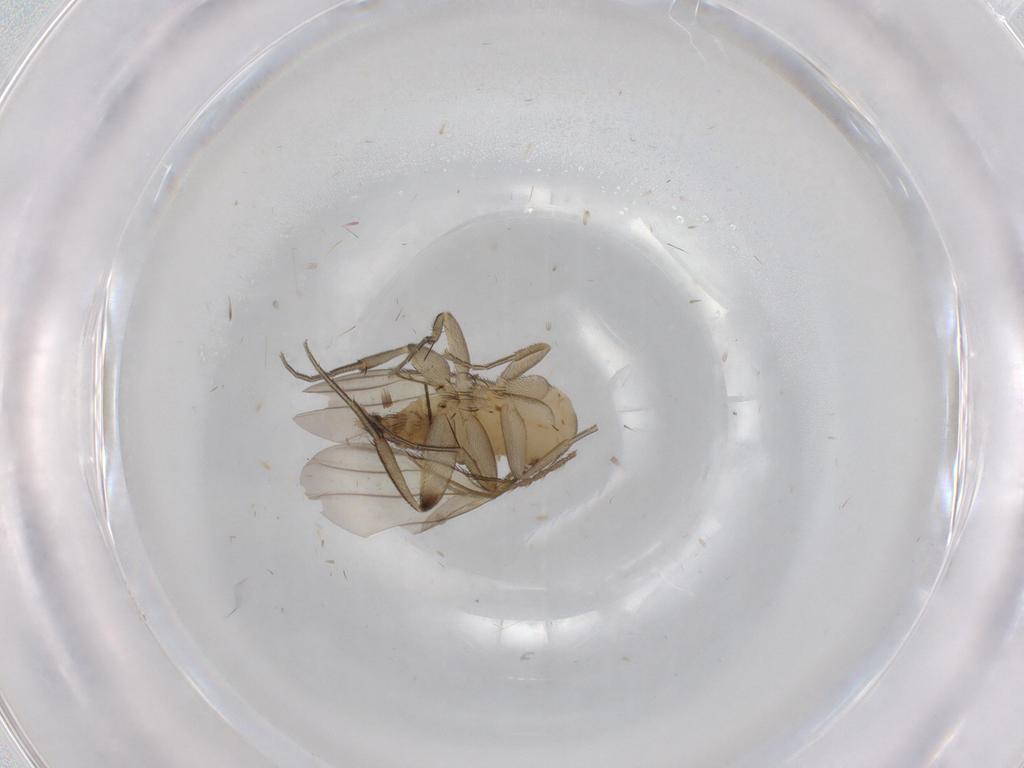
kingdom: Animalia
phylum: Arthropoda
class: Insecta
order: Diptera
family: Phoridae
